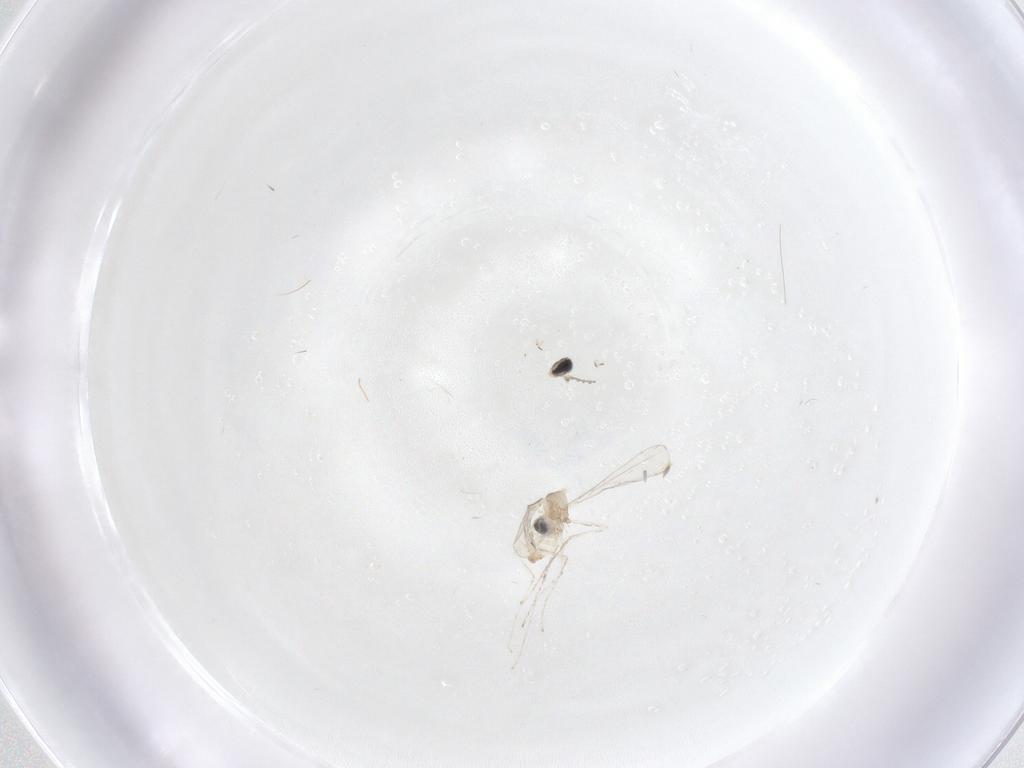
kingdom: Animalia
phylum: Arthropoda
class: Insecta
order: Diptera
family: Cecidomyiidae
